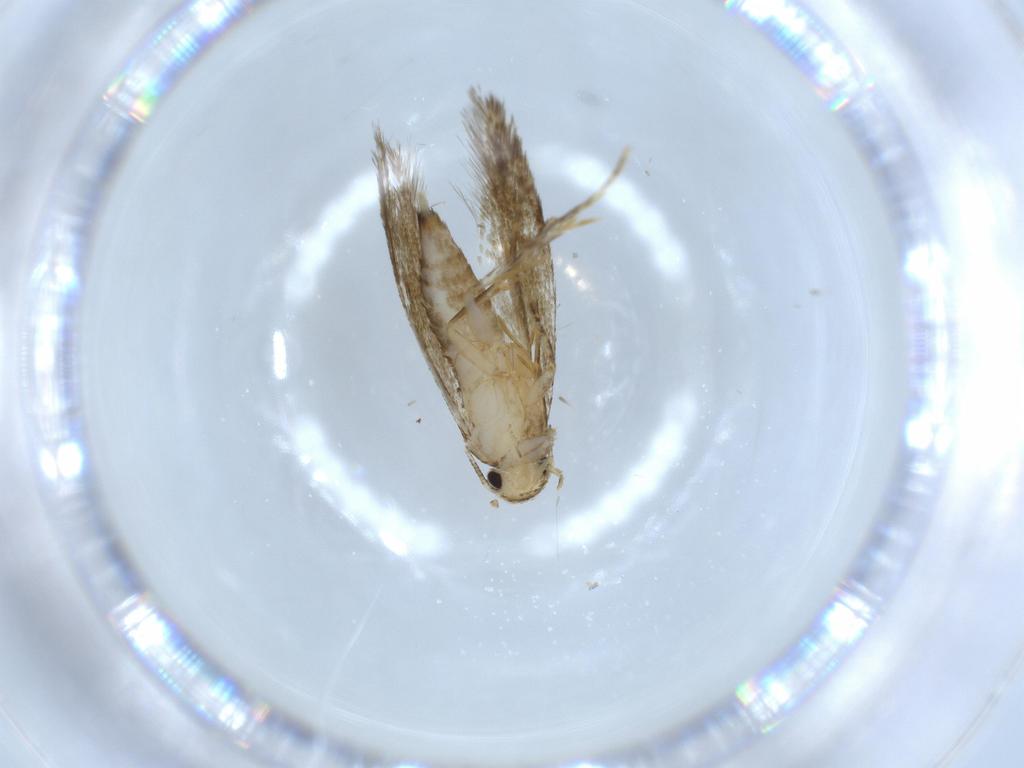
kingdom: Animalia
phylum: Arthropoda
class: Insecta
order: Lepidoptera
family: Tineidae
